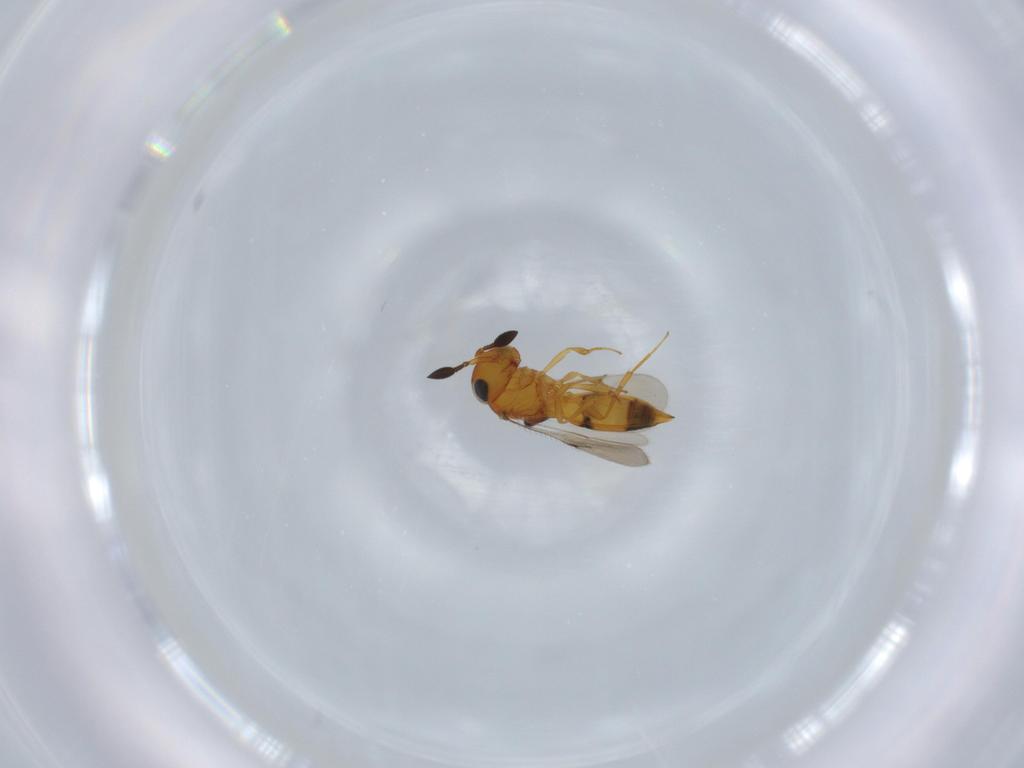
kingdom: Animalia
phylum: Arthropoda
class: Insecta
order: Hymenoptera
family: Scelionidae
